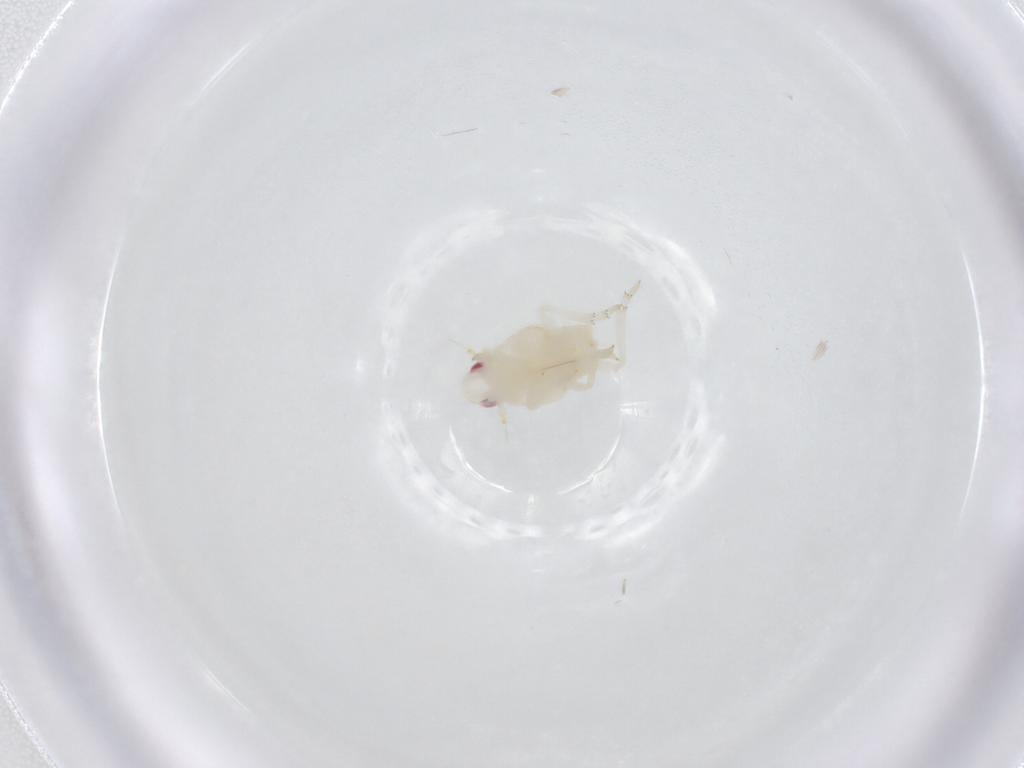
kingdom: Animalia
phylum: Arthropoda
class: Insecta
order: Hemiptera
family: Flatidae
